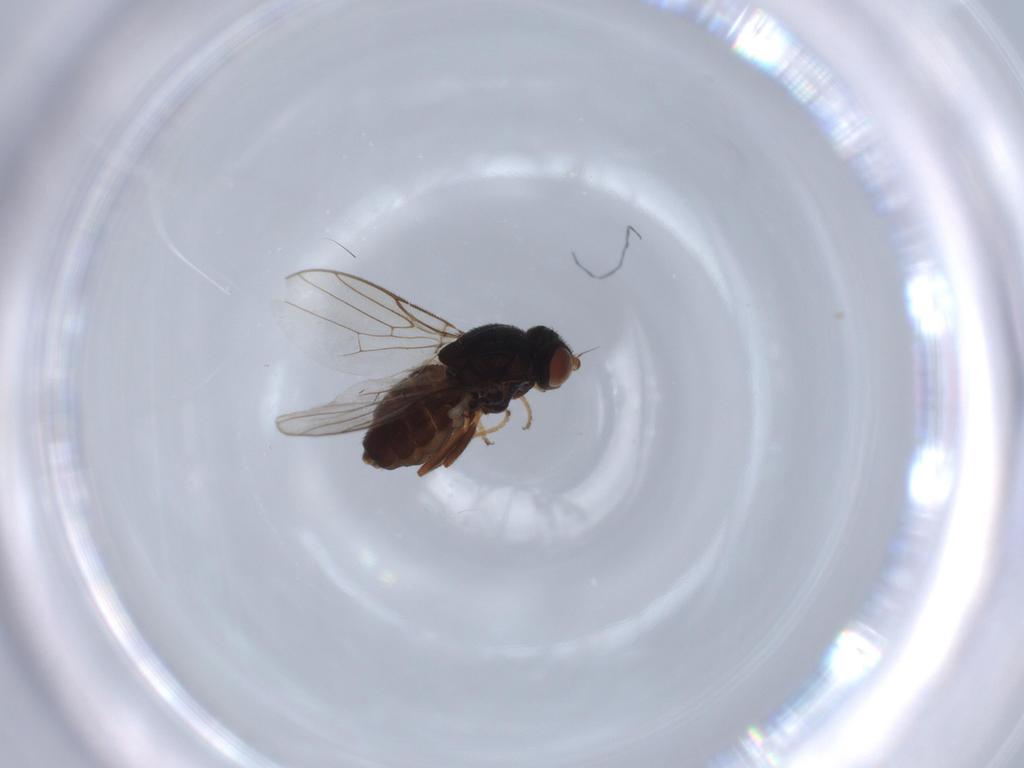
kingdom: Animalia
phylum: Arthropoda
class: Insecta
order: Diptera
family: Chloropidae
